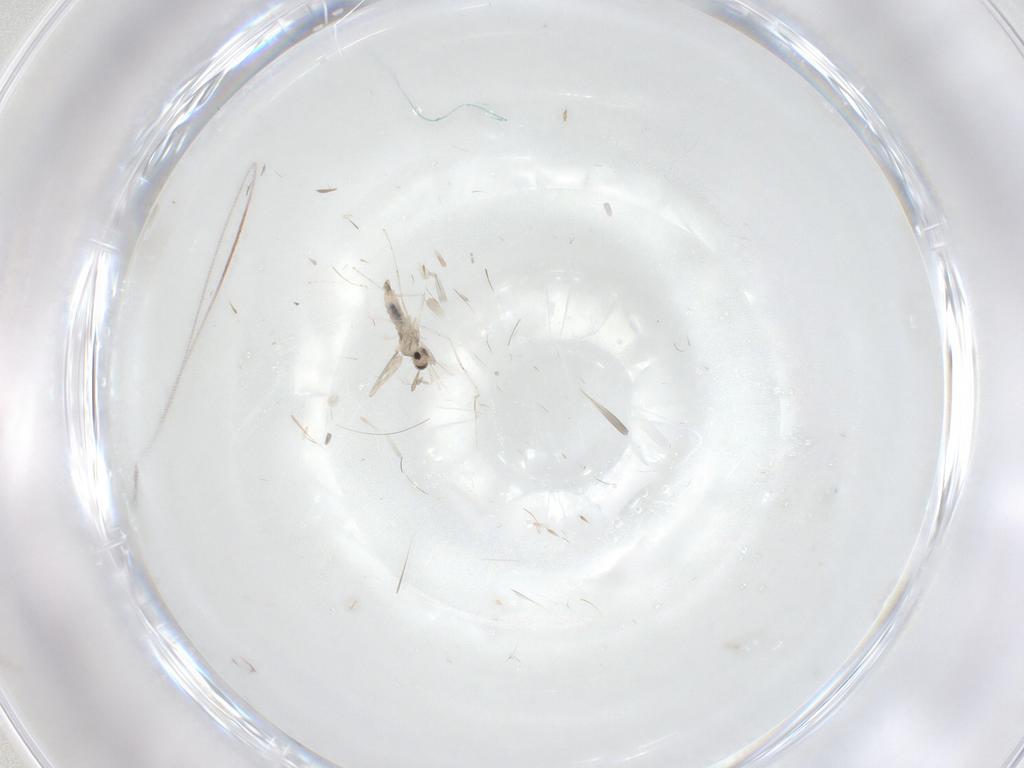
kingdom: Animalia
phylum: Arthropoda
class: Insecta
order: Diptera
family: Cecidomyiidae
